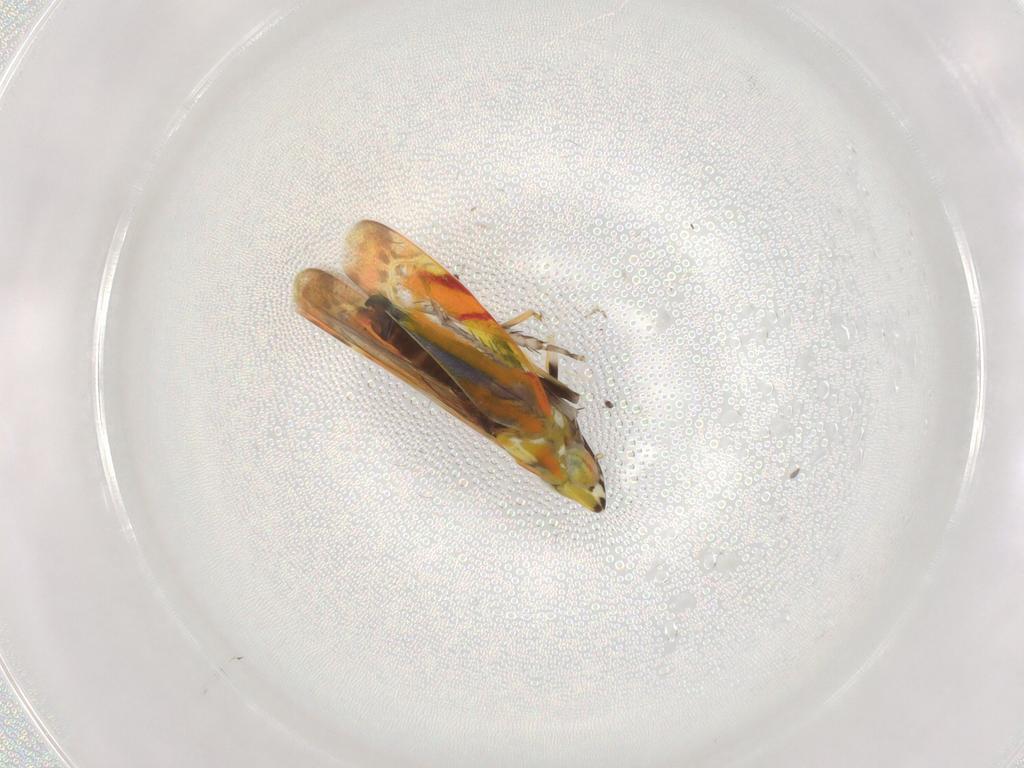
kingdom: Animalia
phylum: Arthropoda
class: Insecta
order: Hemiptera
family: Cicadellidae
